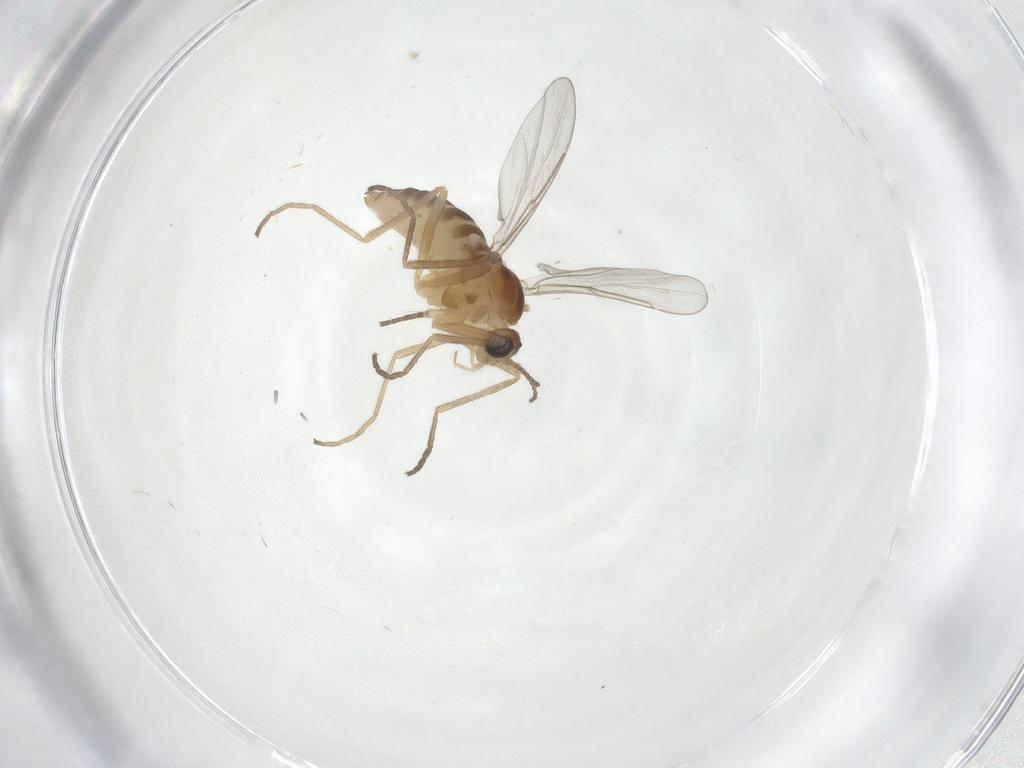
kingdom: Animalia
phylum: Arthropoda
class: Insecta
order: Diptera
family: Cecidomyiidae
